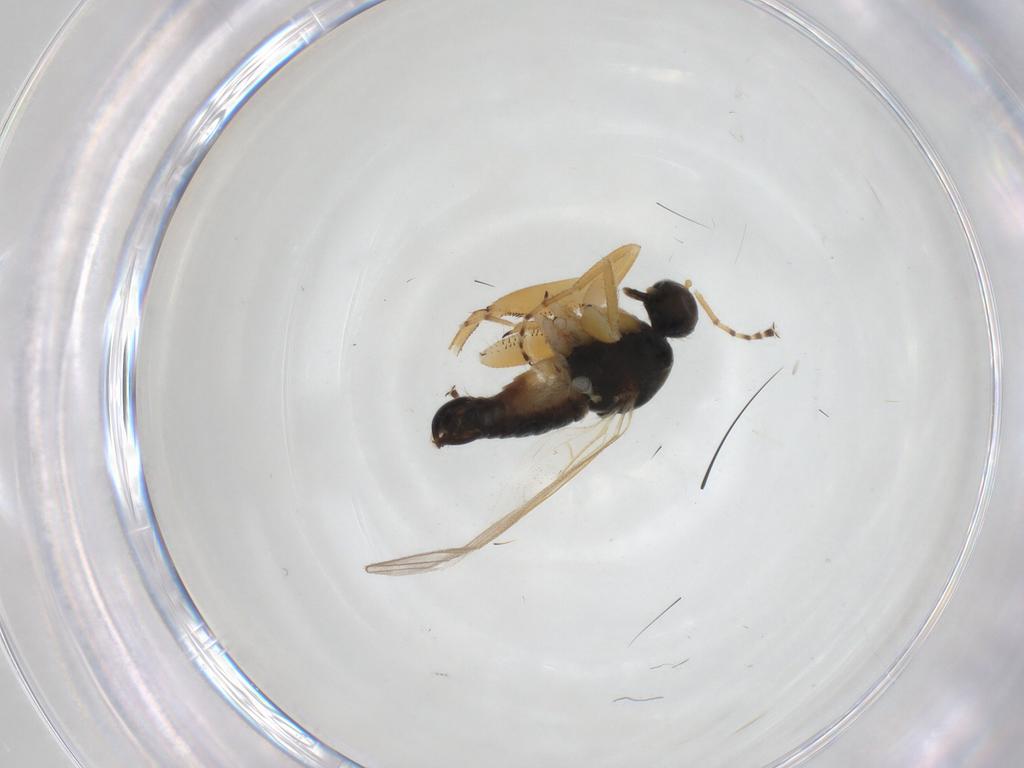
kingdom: Animalia
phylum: Arthropoda
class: Insecta
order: Diptera
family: Hybotidae
